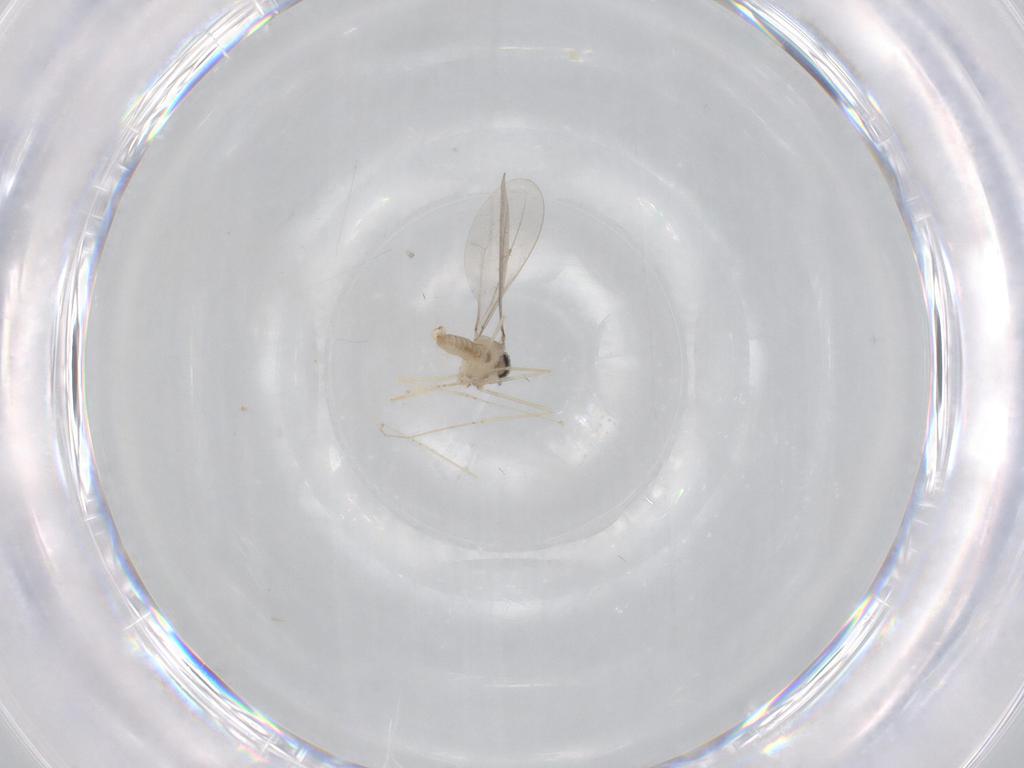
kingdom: Animalia
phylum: Arthropoda
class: Insecta
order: Diptera
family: Cecidomyiidae
